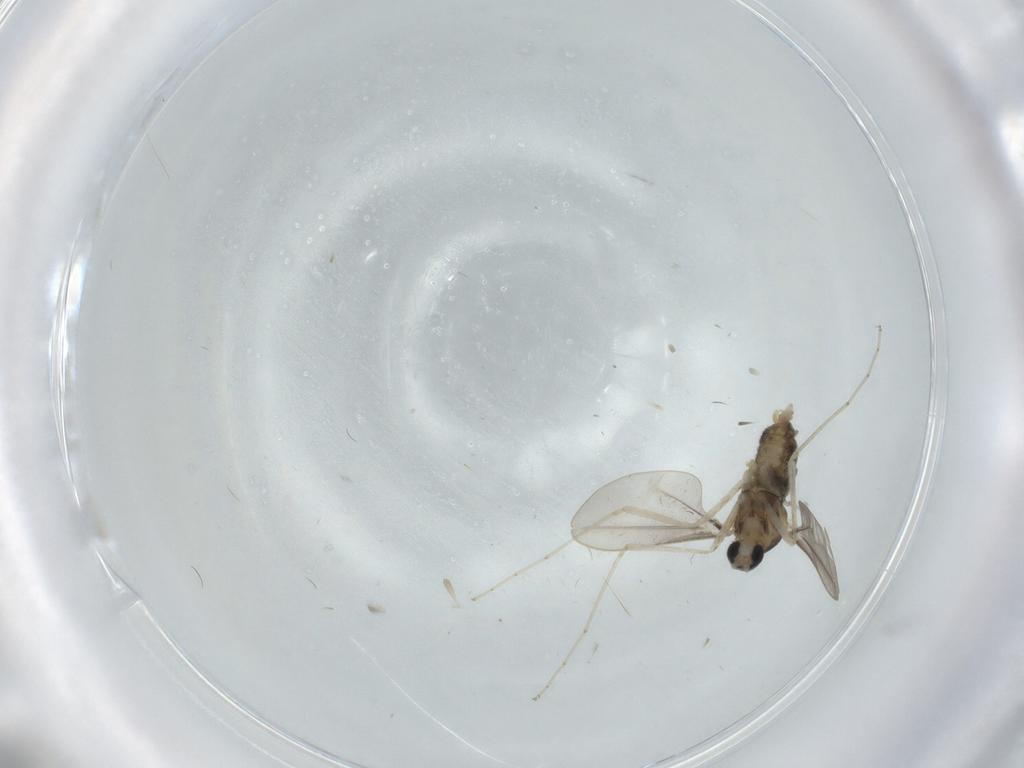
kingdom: Animalia
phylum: Arthropoda
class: Insecta
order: Diptera
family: Cecidomyiidae
